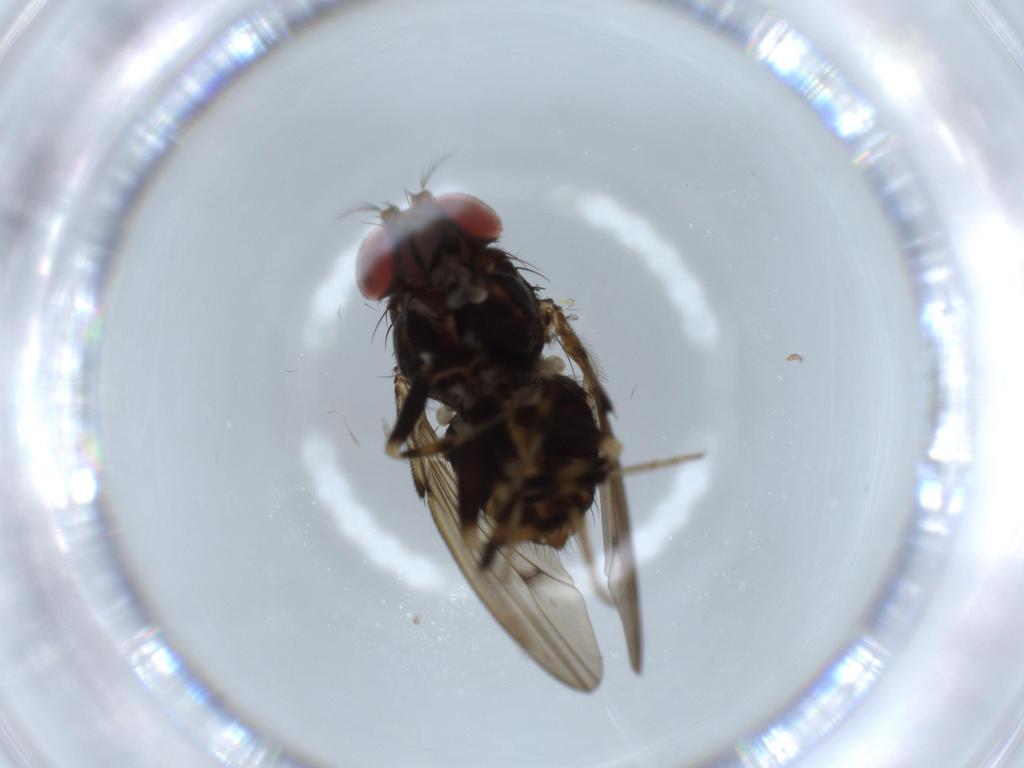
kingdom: Animalia
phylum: Arthropoda
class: Insecta
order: Diptera
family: Drosophilidae
